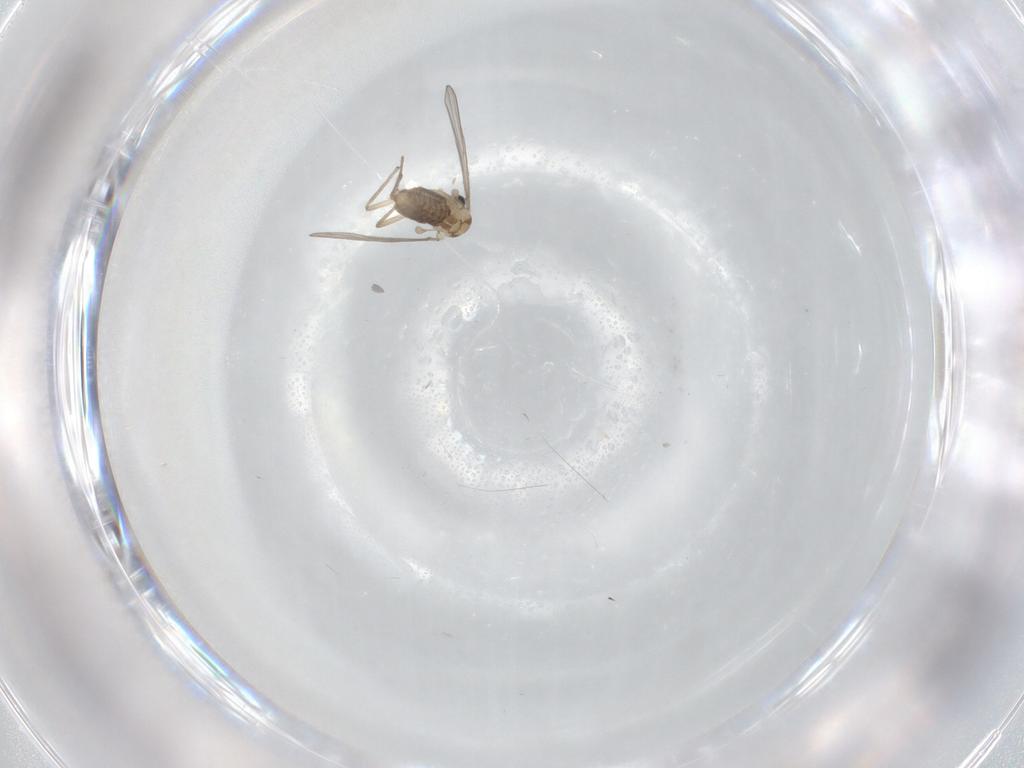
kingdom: Animalia
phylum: Arthropoda
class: Insecta
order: Diptera
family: Chironomidae
